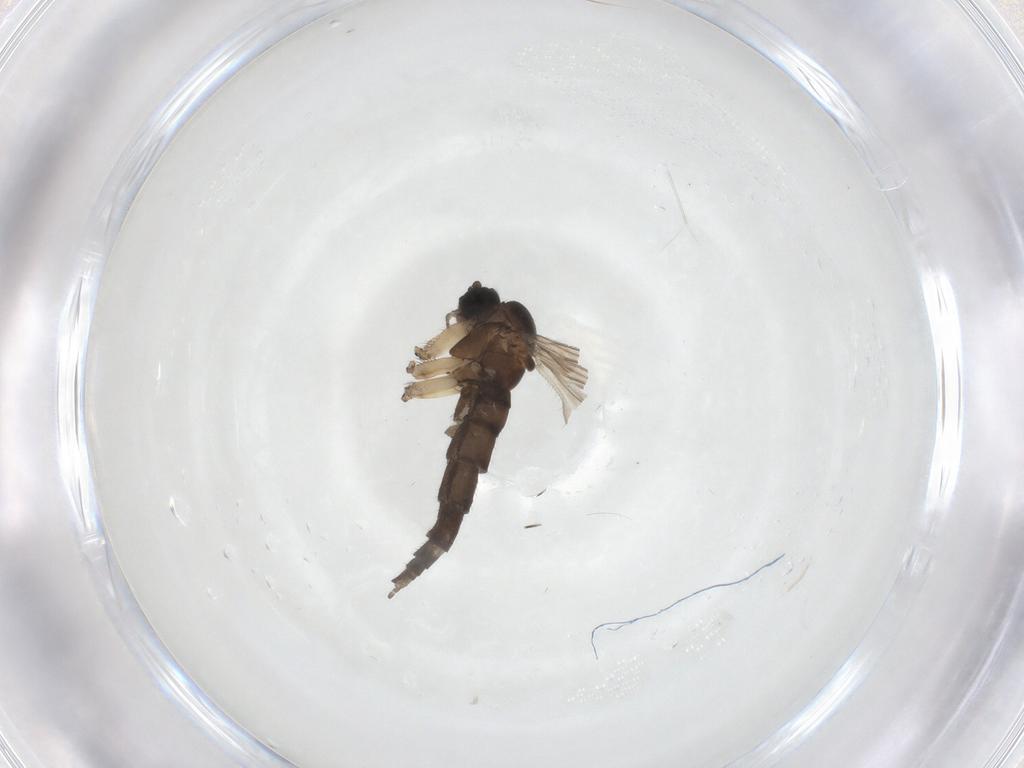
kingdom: Animalia
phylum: Arthropoda
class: Insecta
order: Diptera
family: Sciaridae
